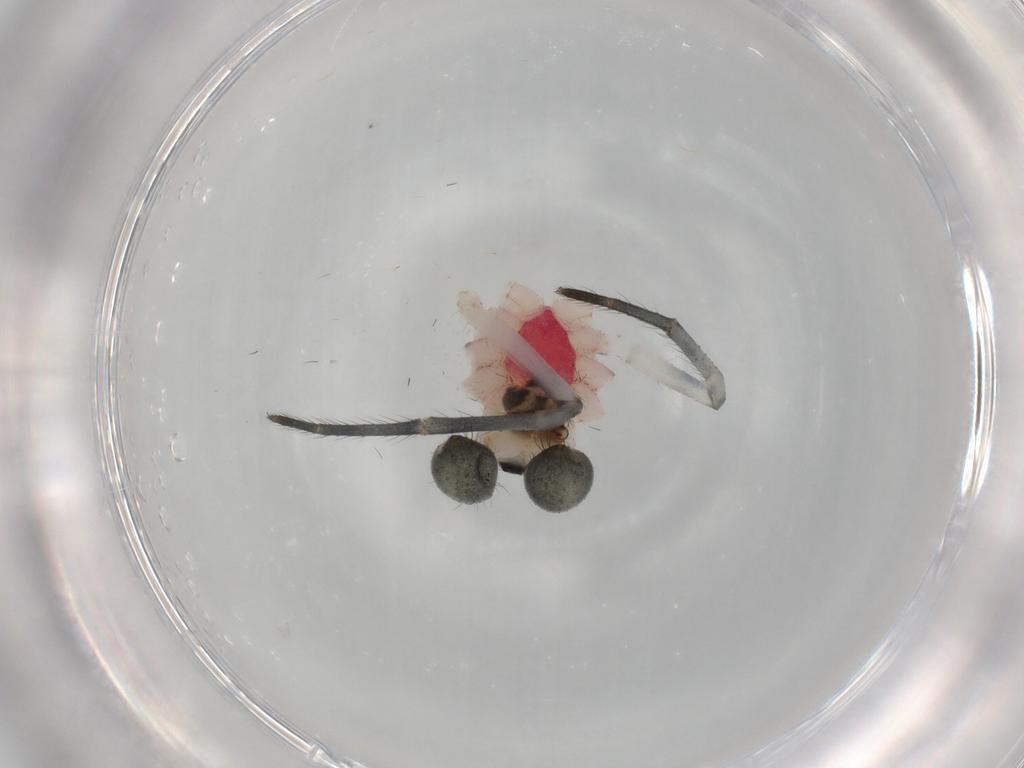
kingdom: Animalia
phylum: Arthropoda
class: Arachnida
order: Araneae
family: Araneidae
